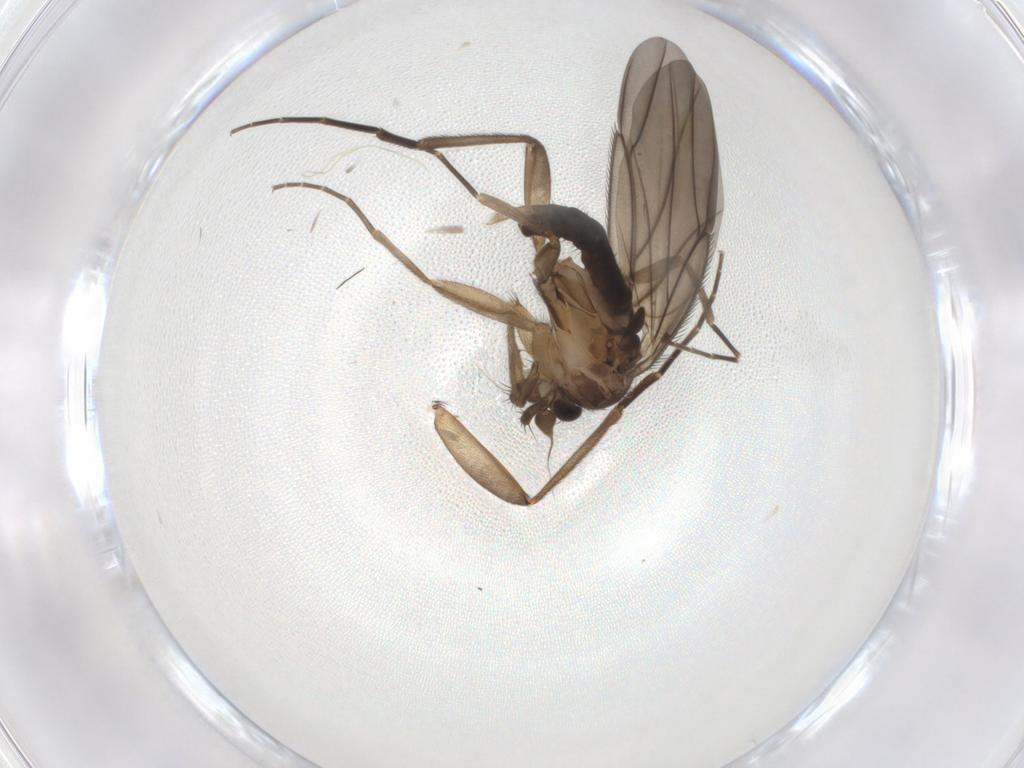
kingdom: Animalia
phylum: Arthropoda
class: Insecta
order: Diptera
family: Phoridae
